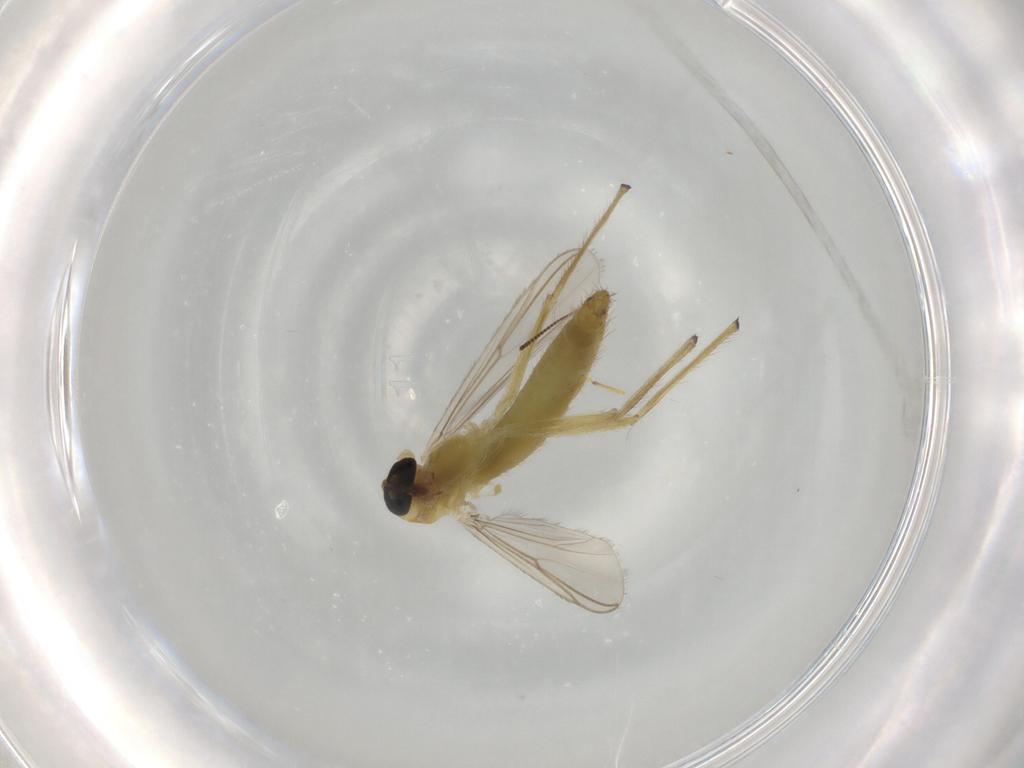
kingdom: Animalia
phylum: Arthropoda
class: Insecta
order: Diptera
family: Chironomidae
